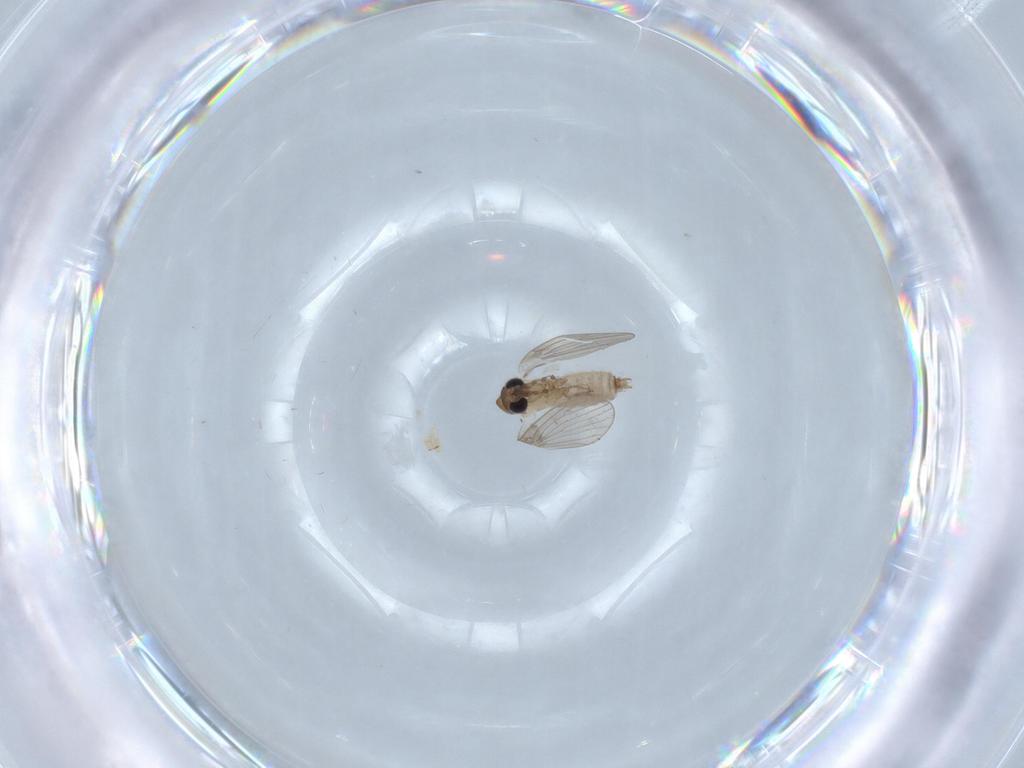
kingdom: Animalia
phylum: Arthropoda
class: Insecta
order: Diptera
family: Psychodidae
